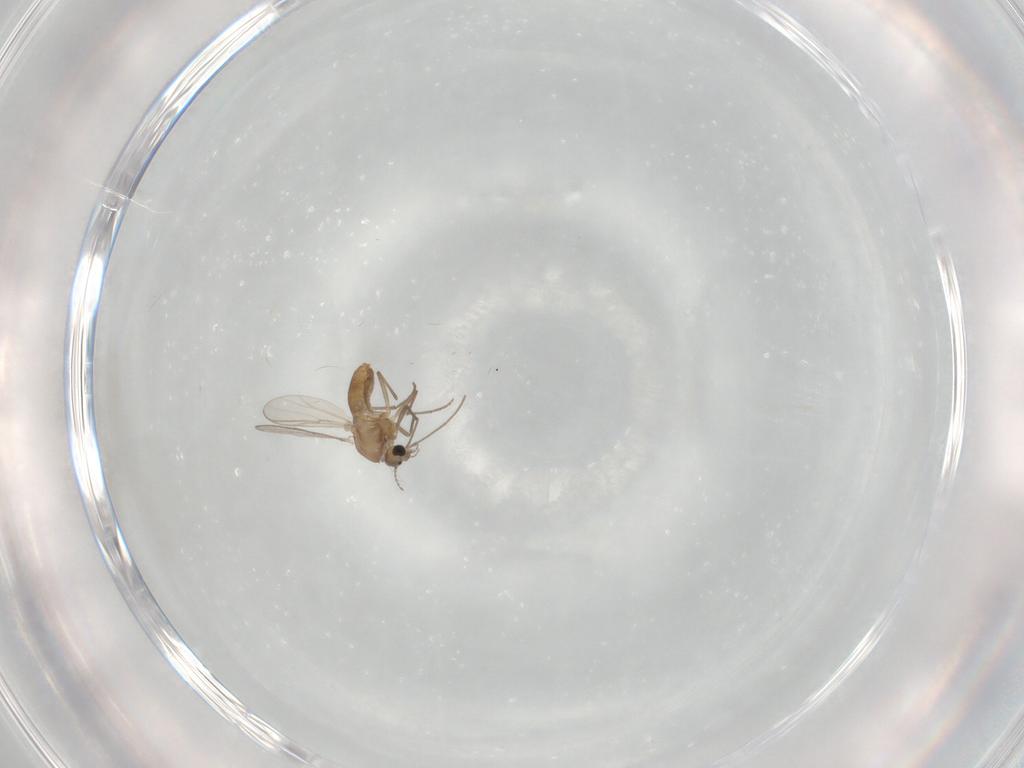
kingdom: Animalia
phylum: Arthropoda
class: Insecta
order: Diptera
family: Chironomidae
